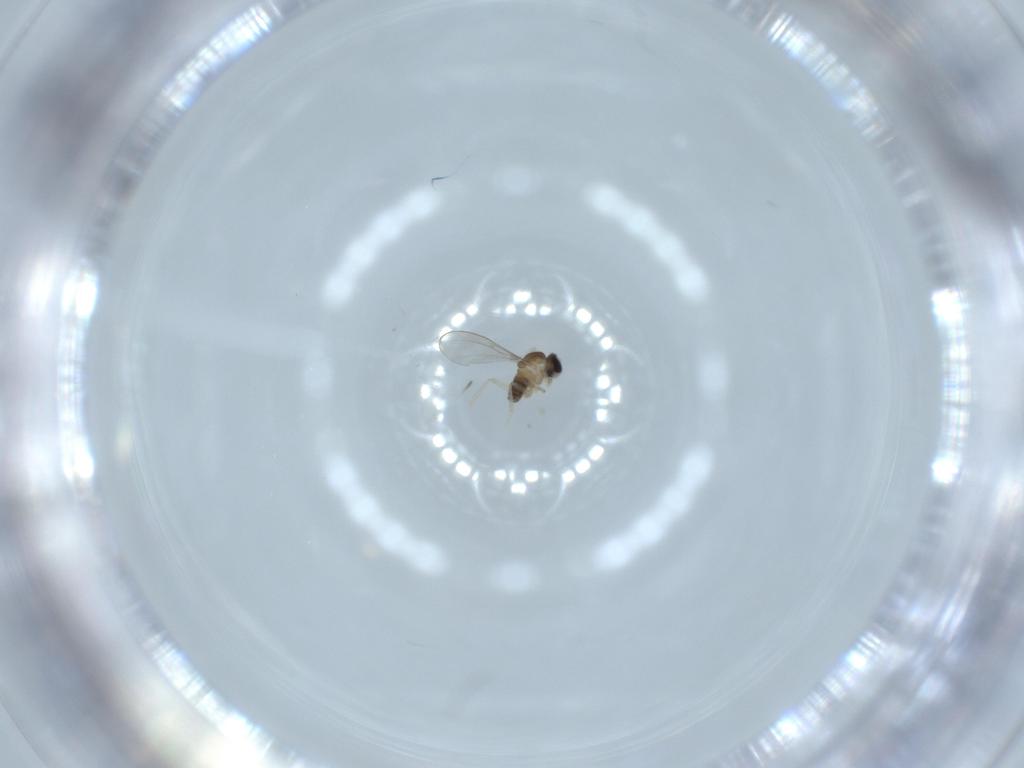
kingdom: Animalia
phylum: Arthropoda
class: Insecta
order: Diptera
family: Cecidomyiidae
